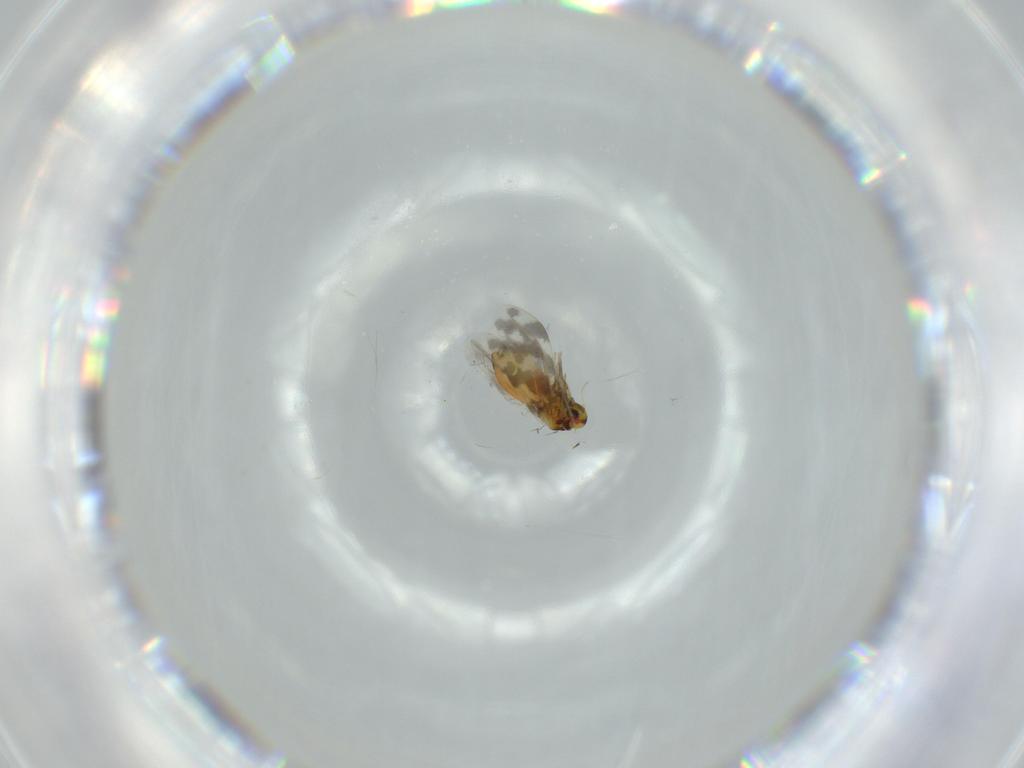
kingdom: Animalia
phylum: Arthropoda
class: Insecta
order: Hemiptera
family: Aleyrodidae
